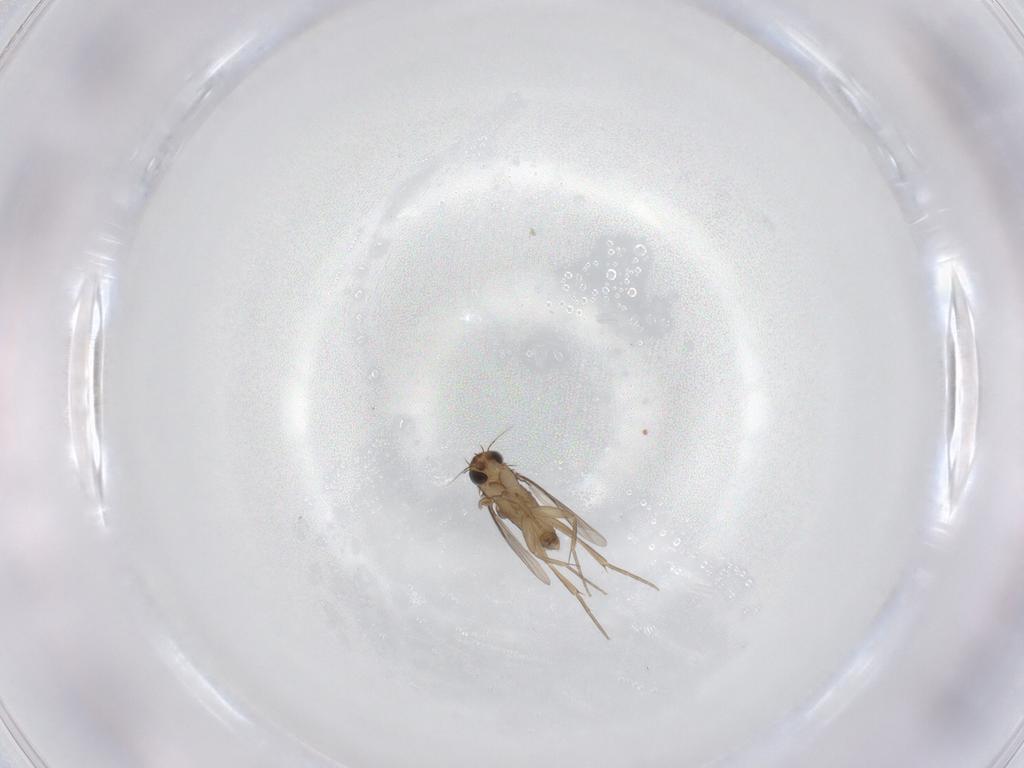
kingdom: Animalia
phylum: Arthropoda
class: Insecta
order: Diptera
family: Phoridae
